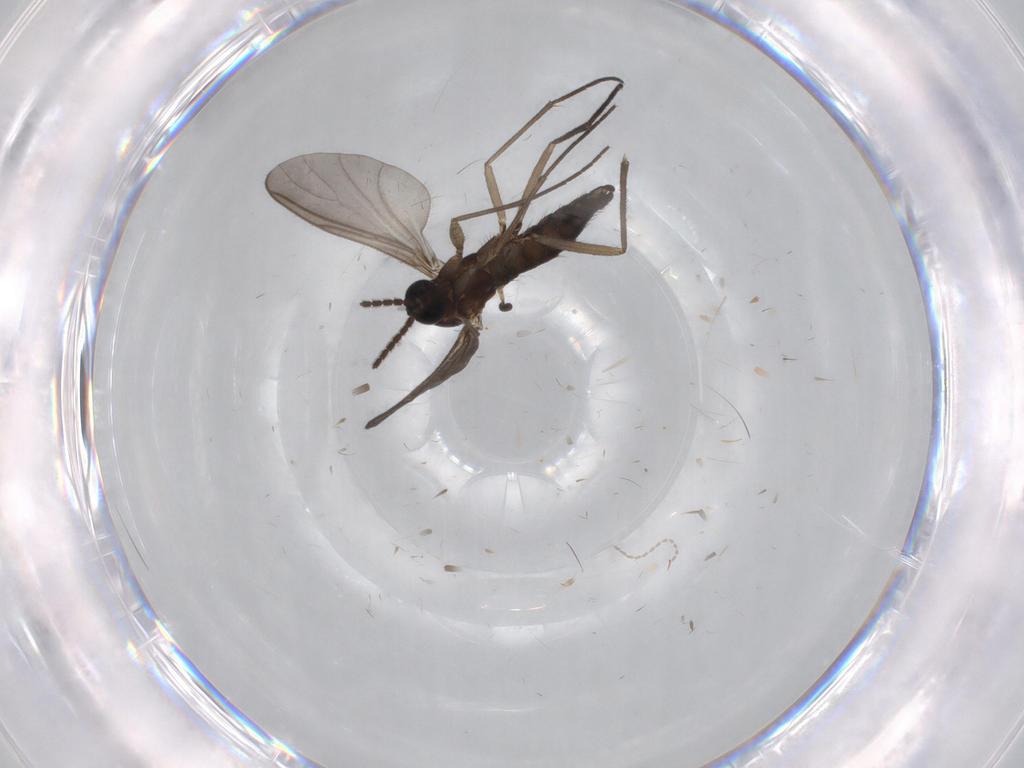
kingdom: Animalia
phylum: Arthropoda
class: Insecta
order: Diptera
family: Sciaridae
